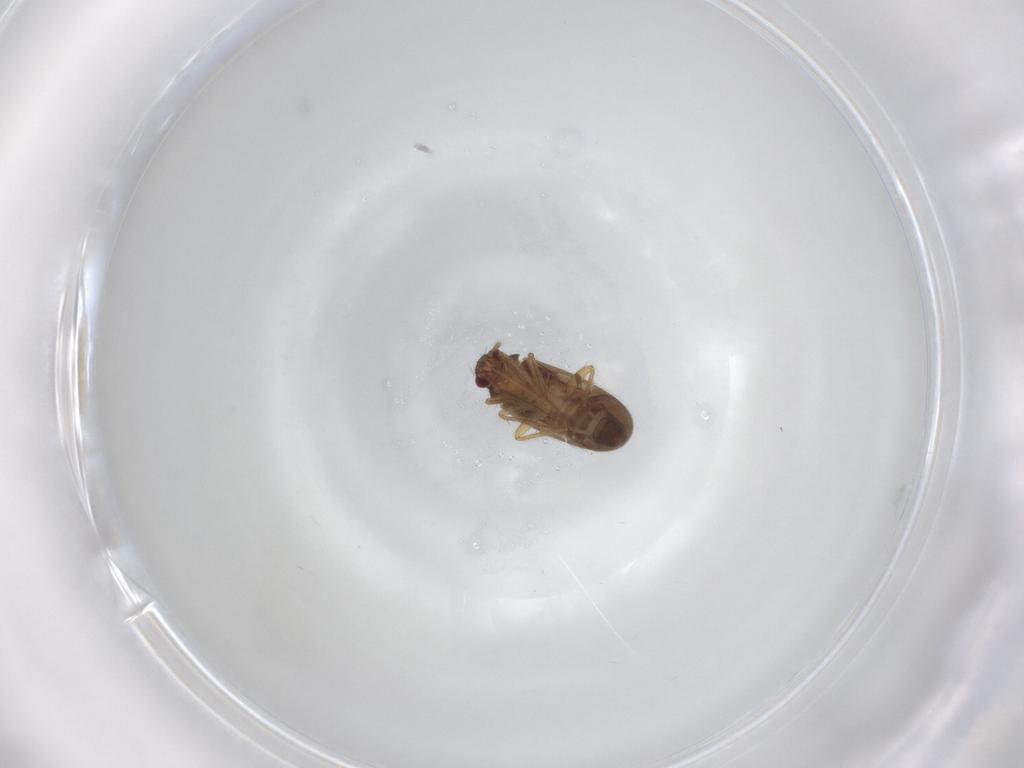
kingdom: Animalia
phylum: Arthropoda
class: Insecta
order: Hemiptera
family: Ceratocombidae
